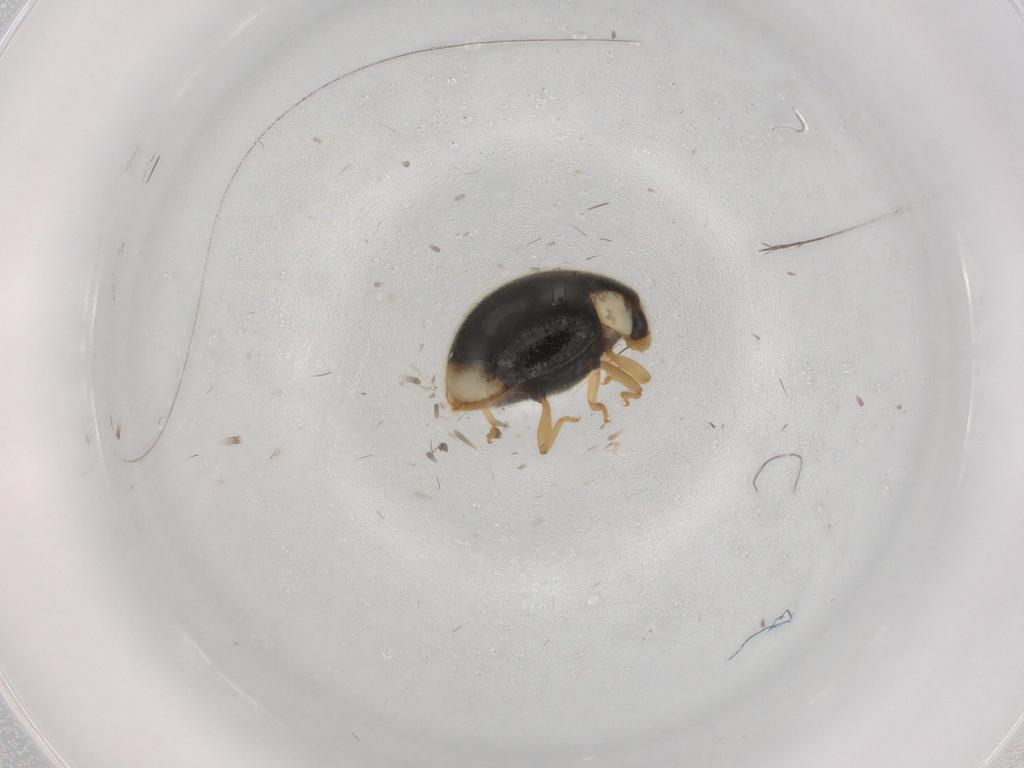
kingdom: Animalia
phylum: Arthropoda
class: Insecta
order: Coleoptera
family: Coccinellidae
